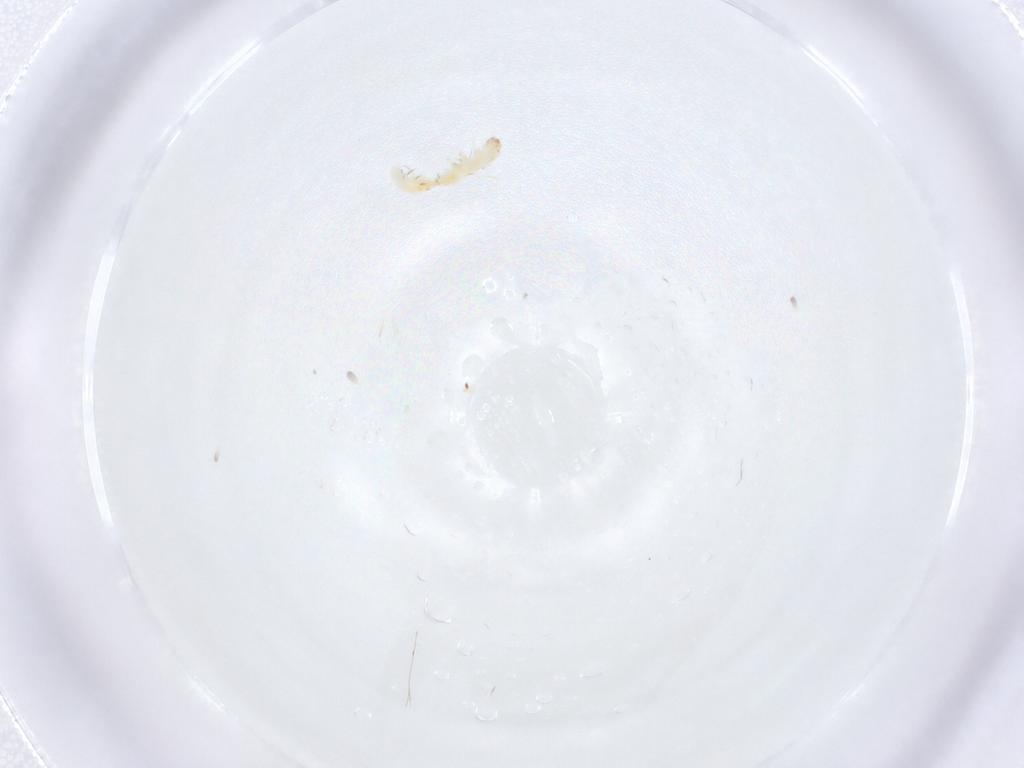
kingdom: Animalia
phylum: Arthropoda
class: Insecta
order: Lepidoptera
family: Crambidae
